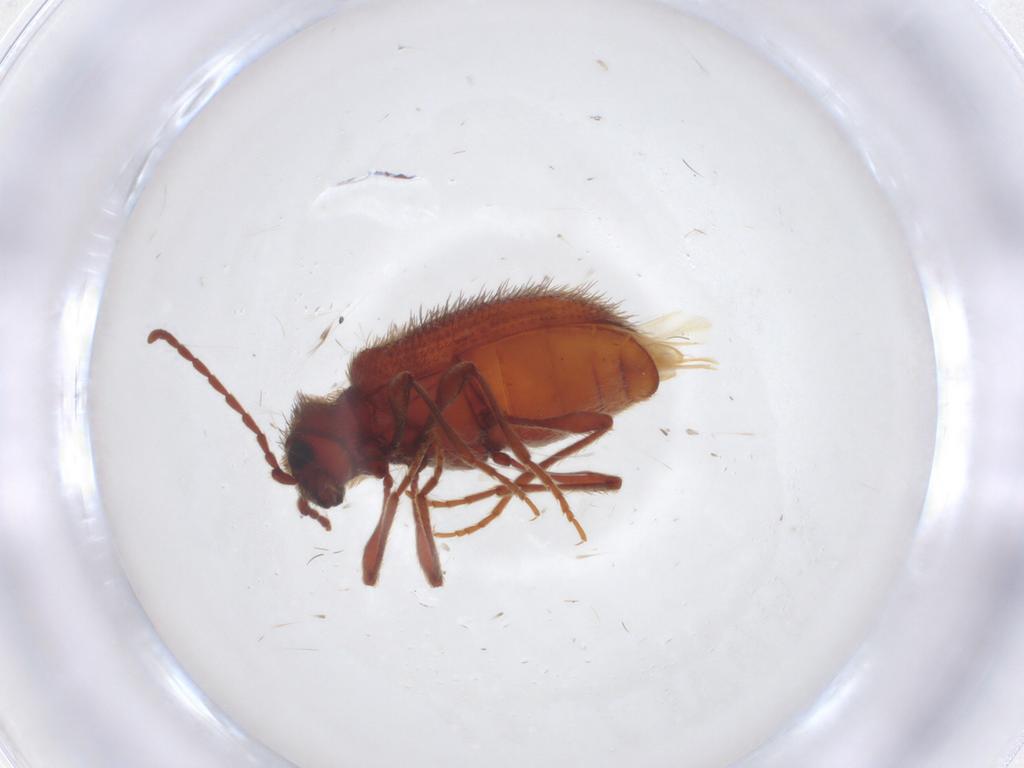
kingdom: Animalia
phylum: Arthropoda
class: Insecta
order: Coleoptera
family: Ptinidae
